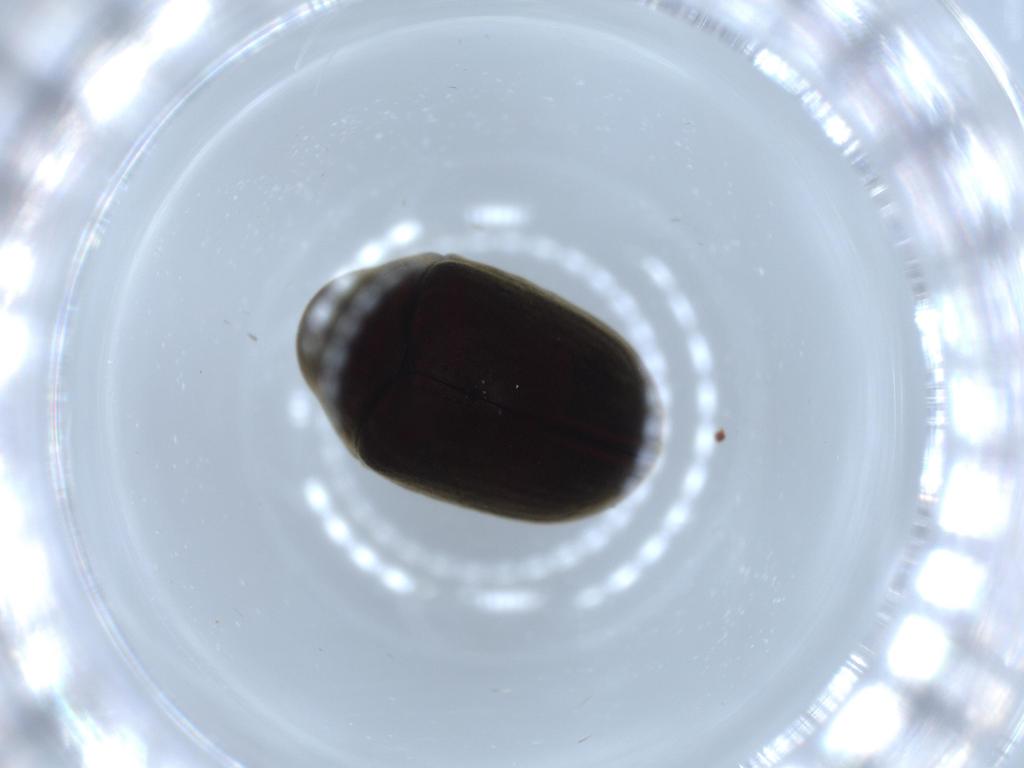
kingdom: Animalia
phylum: Arthropoda
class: Insecta
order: Coleoptera
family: Ptinidae
